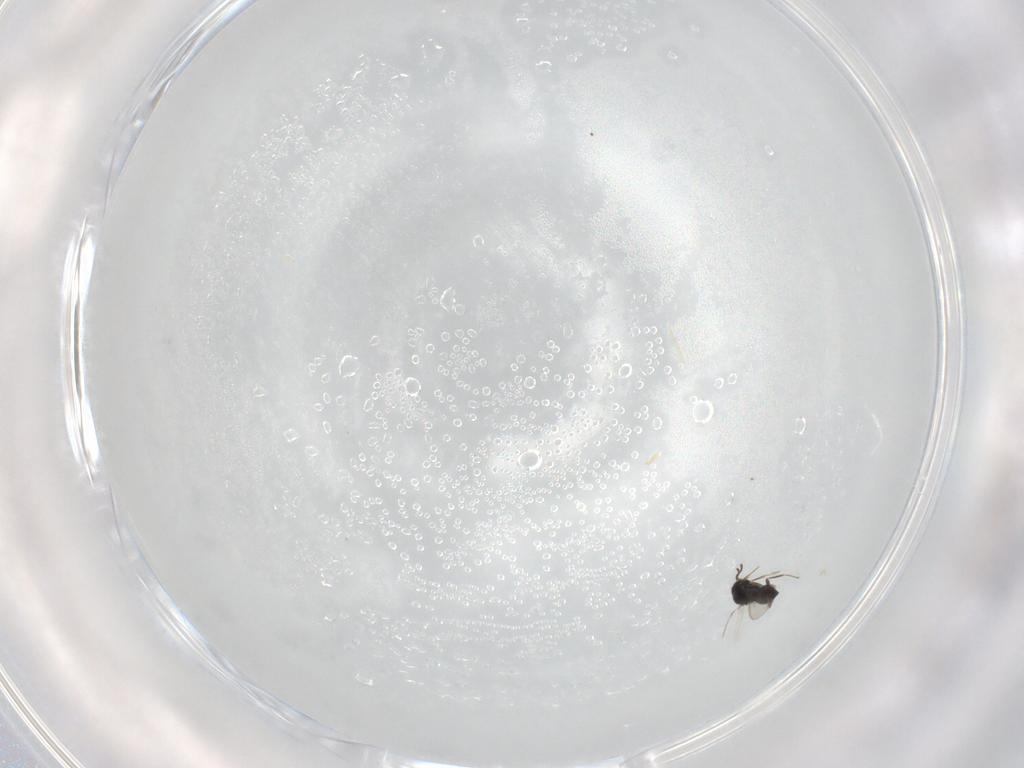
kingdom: Animalia
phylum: Arthropoda
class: Insecta
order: Hymenoptera
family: Scelionidae
